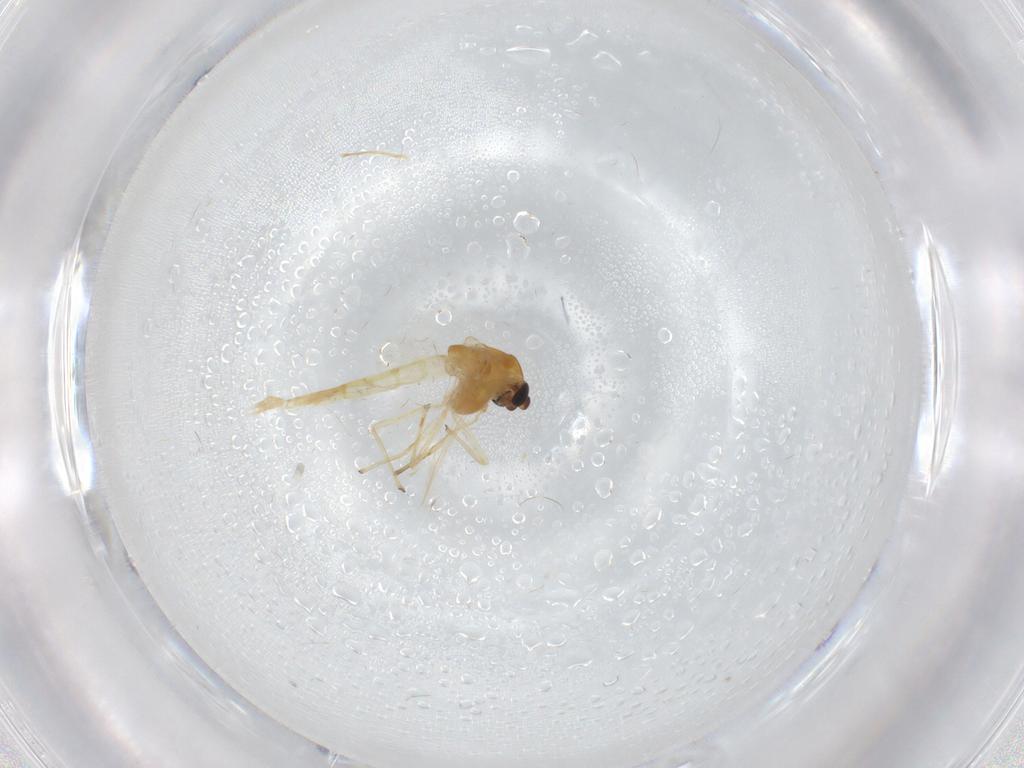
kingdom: Animalia
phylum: Arthropoda
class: Insecta
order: Diptera
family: Chironomidae
